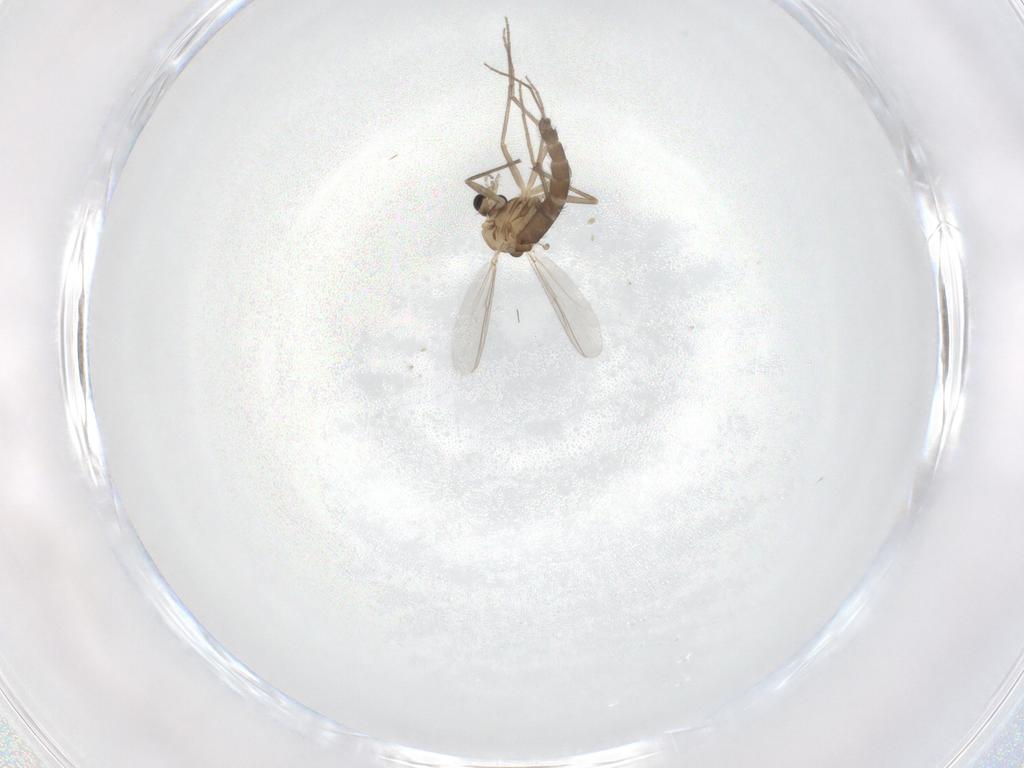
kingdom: Animalia
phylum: Arthropoda
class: Insecta
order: Diptera
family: Chironomidae
